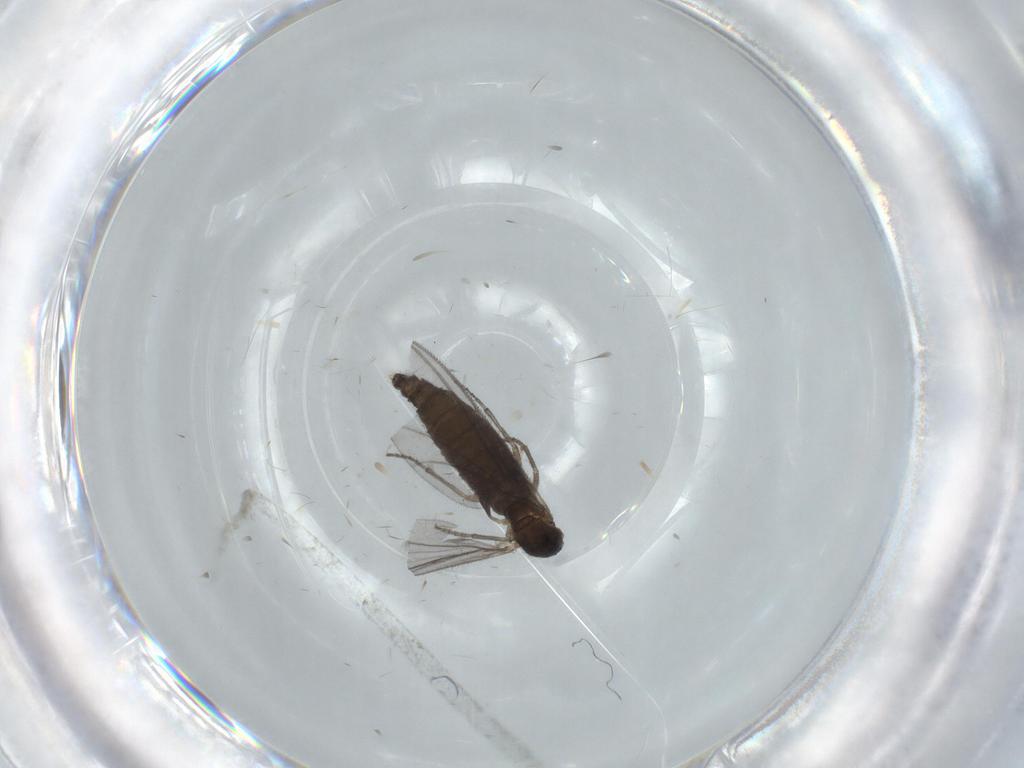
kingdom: Animalia
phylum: Arthropoda
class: Insecta
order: Diptera
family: Sciaridae
